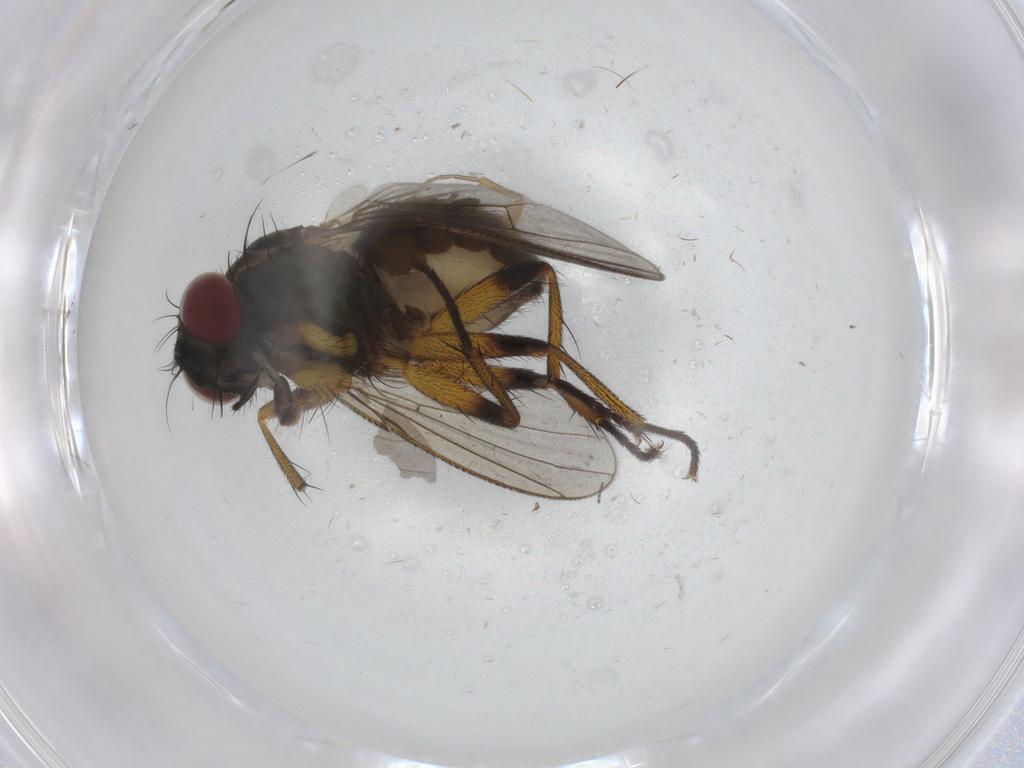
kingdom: Animalia
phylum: Arthropoda
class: Insecta
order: Diptera
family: Muscidae
